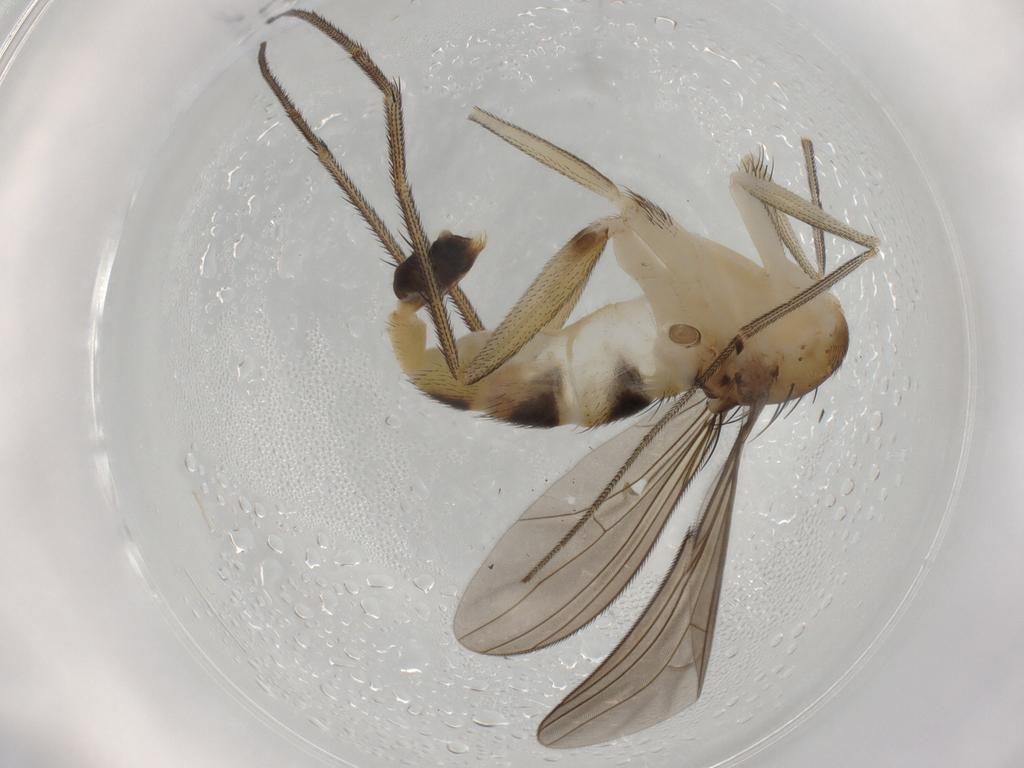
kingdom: Animalia
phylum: Arthropoda
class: Insecta
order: Diptera
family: Dolichopodidae
